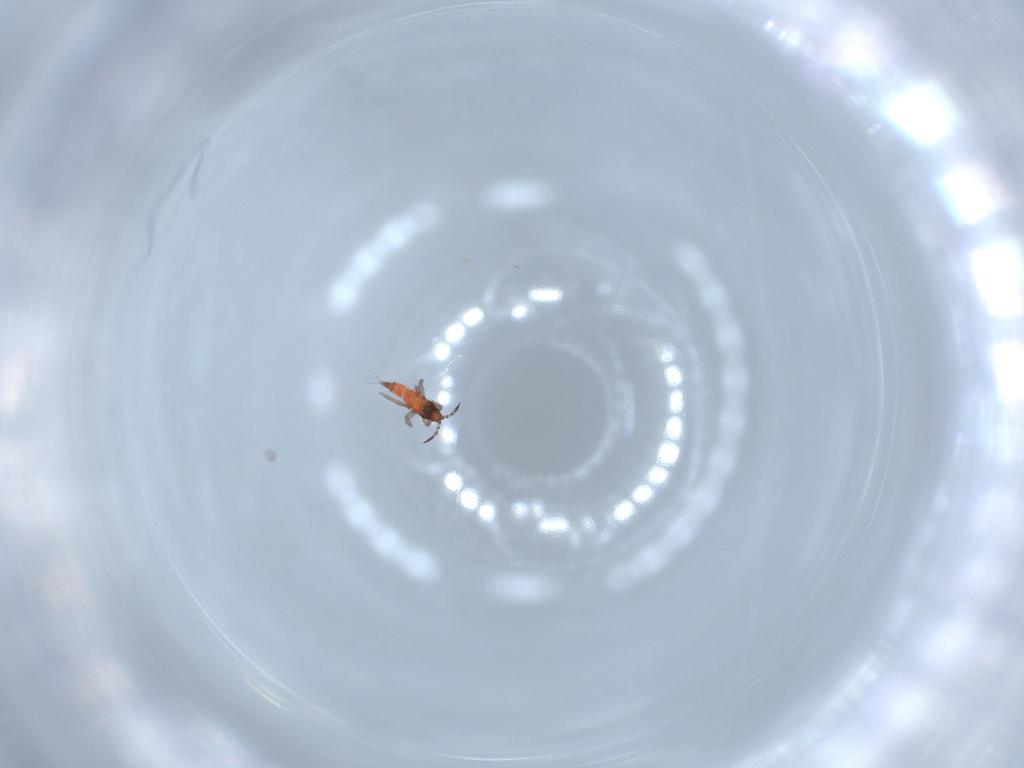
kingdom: Animalia
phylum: Arthropoda
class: Insecta
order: Thysanoptera
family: Phlaeothripidae
